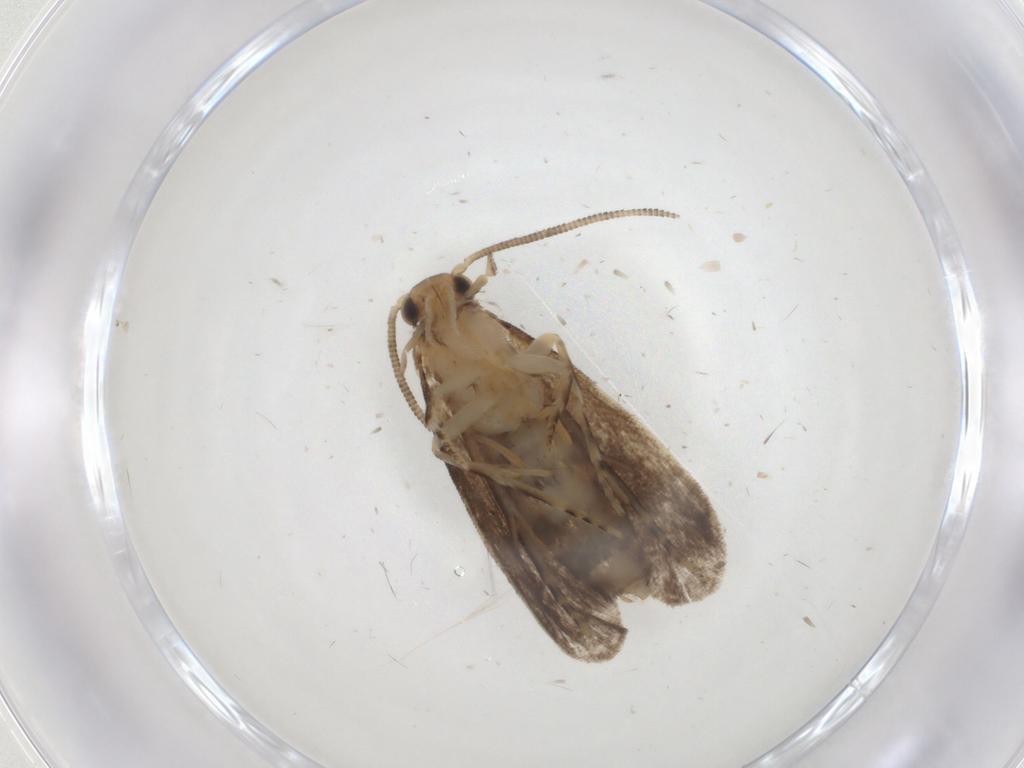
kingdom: Animalia
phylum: Arthropoda
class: Insecta
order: Lepidoptera
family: Dryadaulidae
